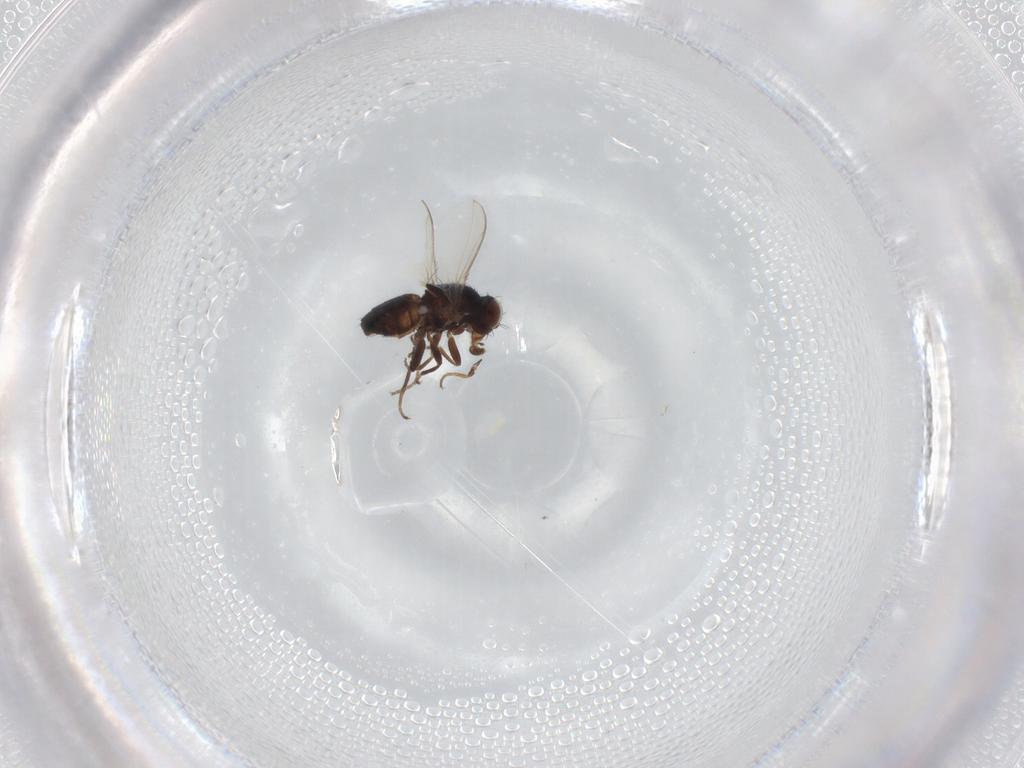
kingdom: Animalia
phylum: Arthropoda
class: Insecta
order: Diptera
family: Cecidomyiidae
